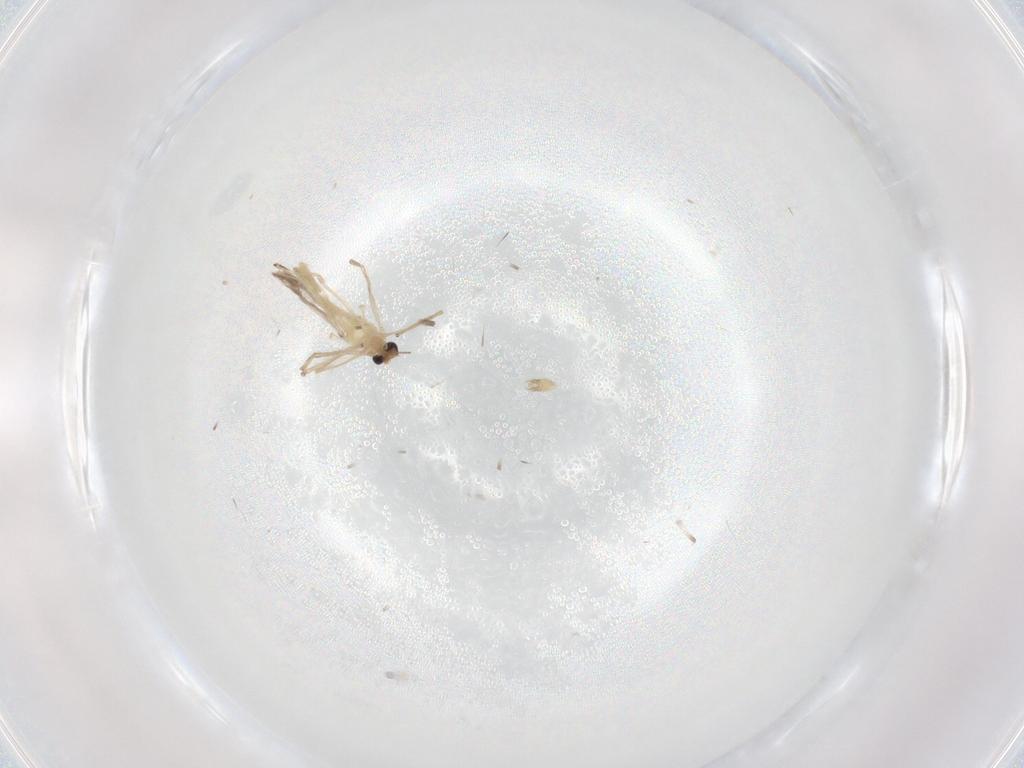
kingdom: Animalia
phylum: Arthropoda
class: Insecta
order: Diptera
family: Chironomidae
